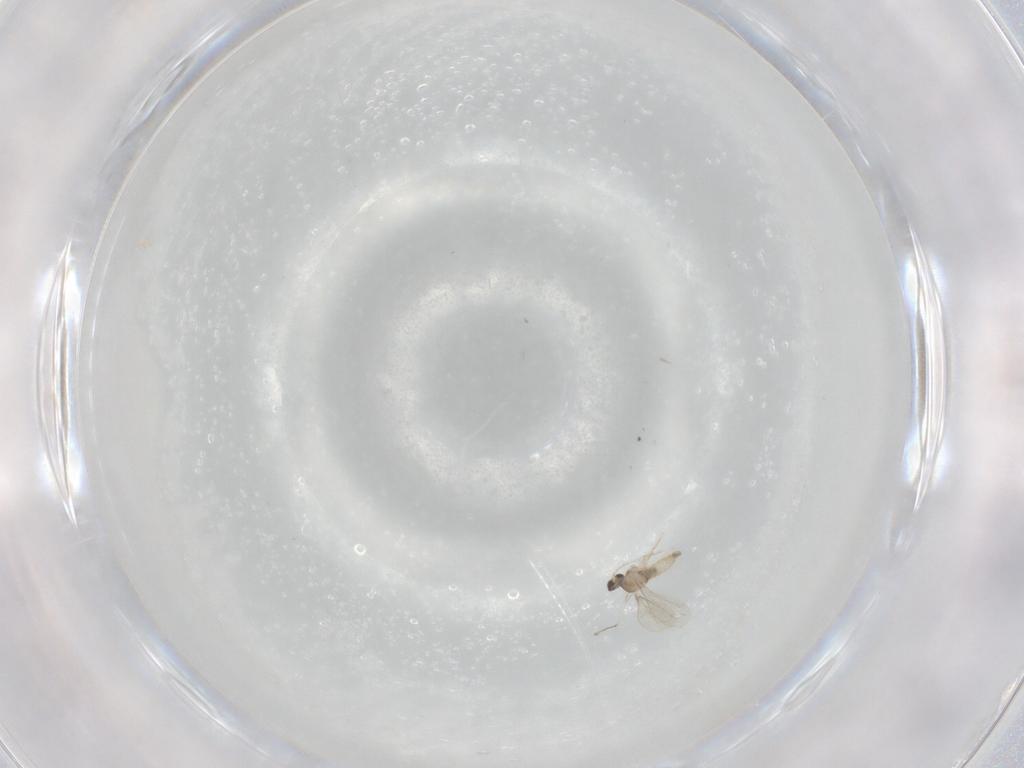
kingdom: Animalia
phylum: Arthropoda
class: Insecta
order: Diptera
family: Cecidomyiidae
